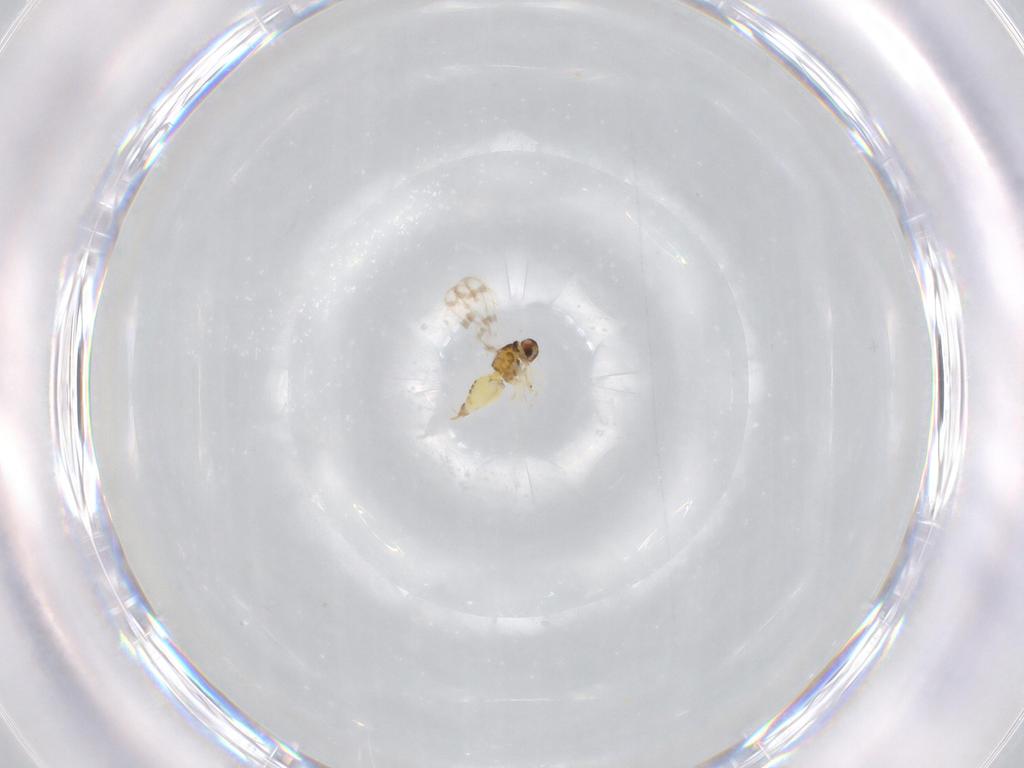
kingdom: Animalia
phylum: Arthropoda
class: Insecta
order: Hemiptera
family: Aleyrodidae
